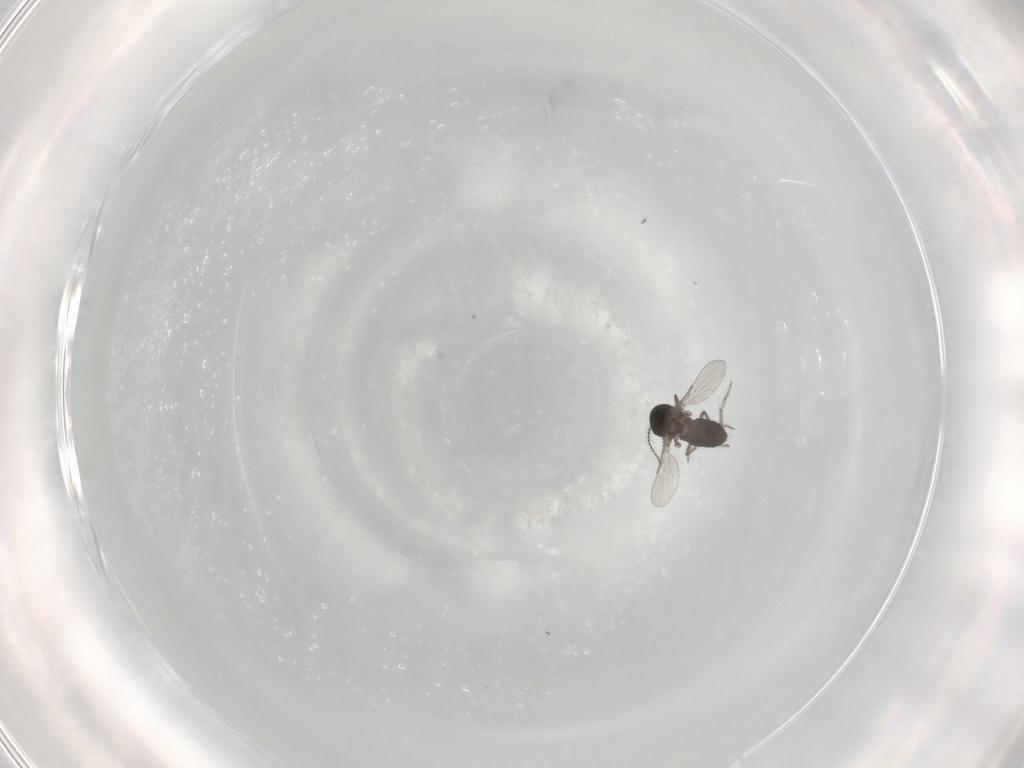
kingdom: Animalia
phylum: Arthropoda
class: Insecta
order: Diptera
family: Ceratopogonidae
